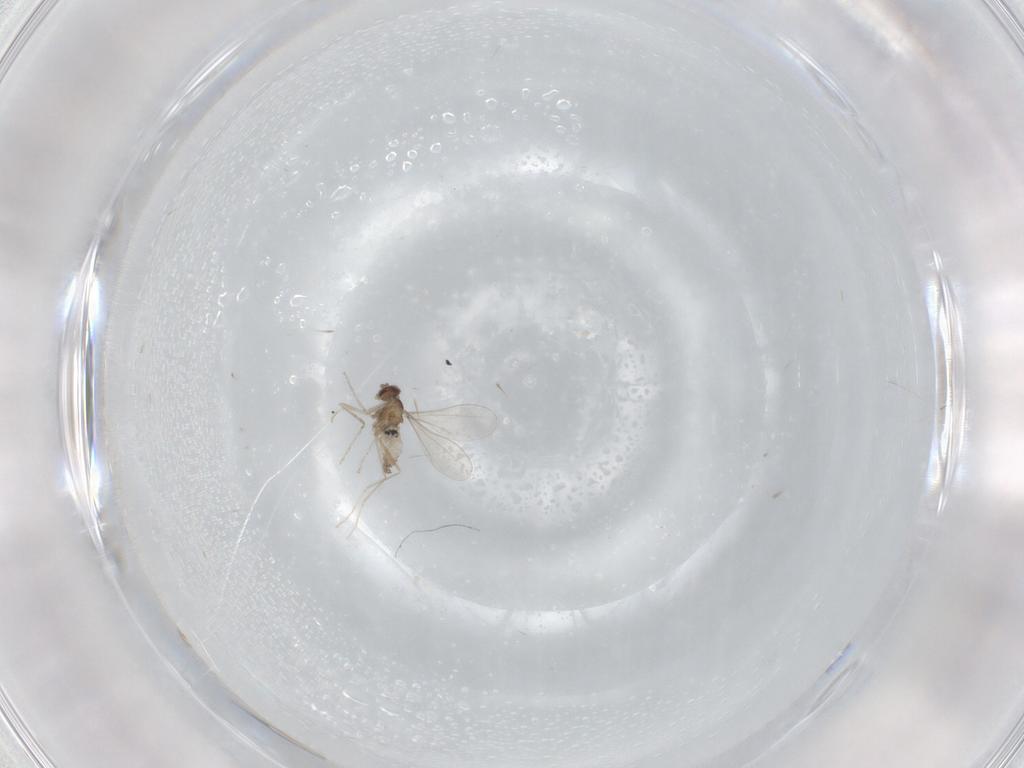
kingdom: Animalia
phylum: Arthropoda
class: Insecta
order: Diptera
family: Cecidomyiidae
